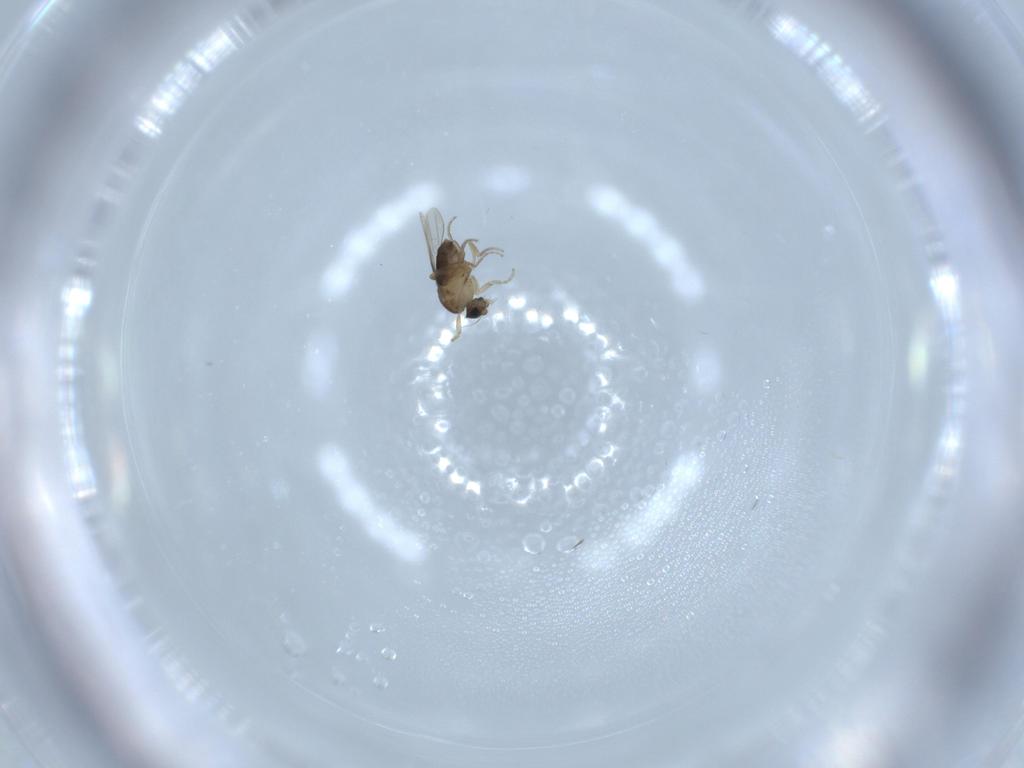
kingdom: Animalia
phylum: Arthropoda
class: Insecta
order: Diptera
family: Phoridae
